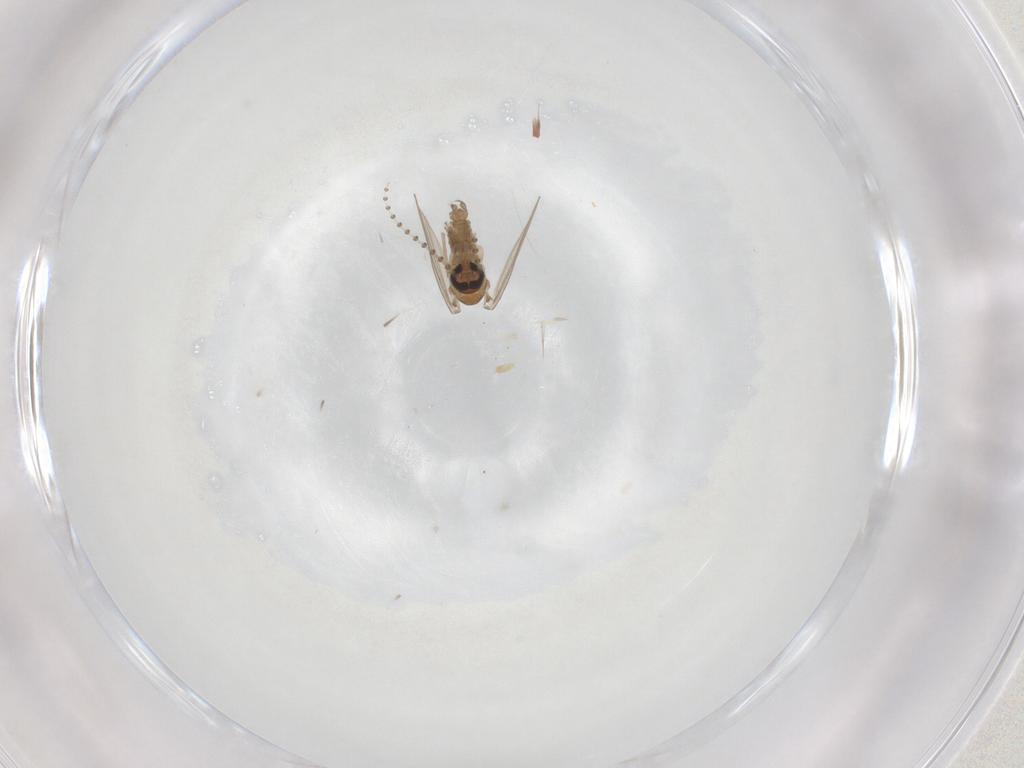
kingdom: Animalia
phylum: Arthropoda
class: Insecta
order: Diptera
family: Psychodidae
